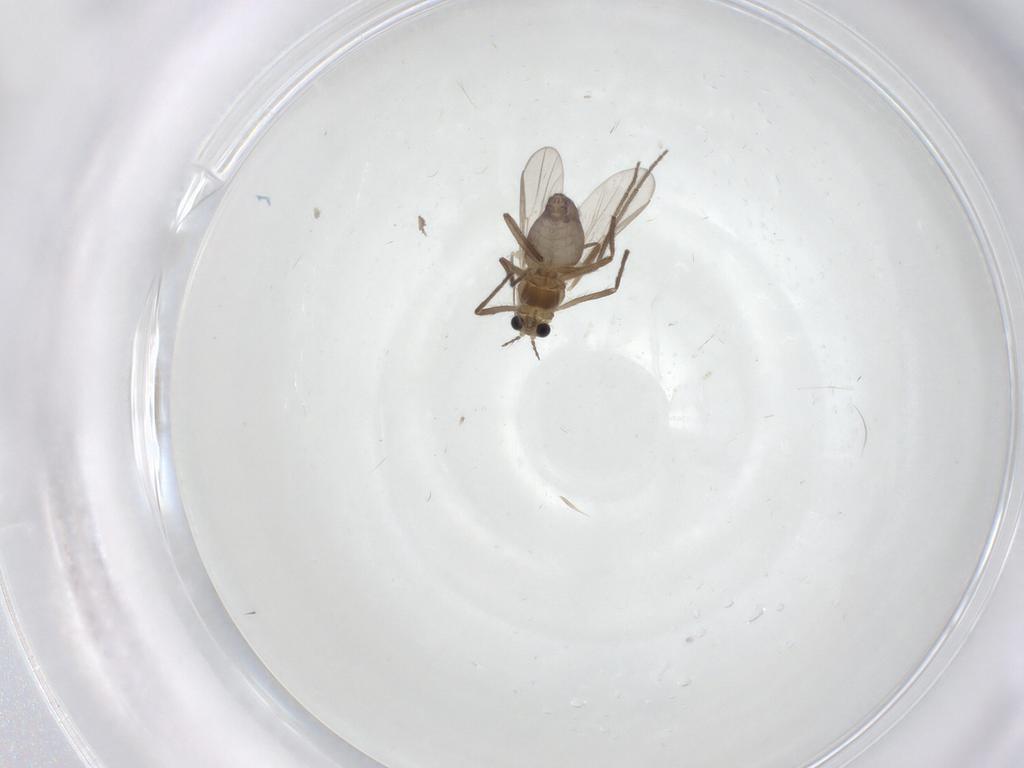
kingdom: Animalia
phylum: Arthropoda
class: Insecta
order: Diptera
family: Chironomidae
